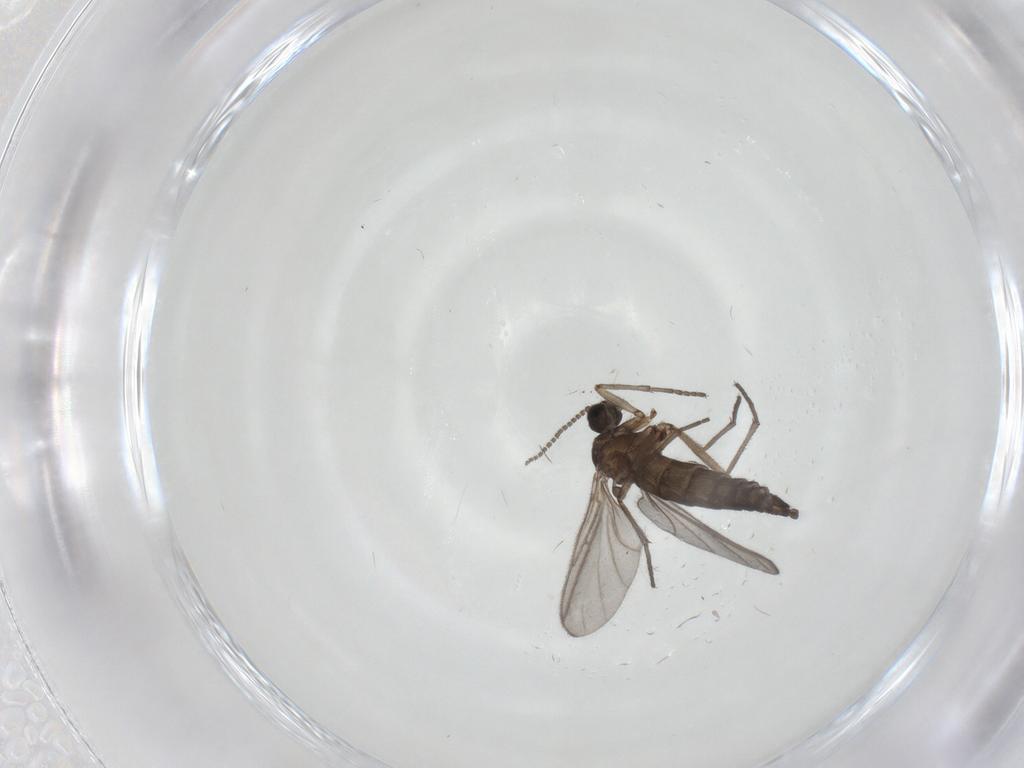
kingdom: Animalia
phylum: Arthropoda
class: Insecta
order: Diptera
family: Sciaridae
